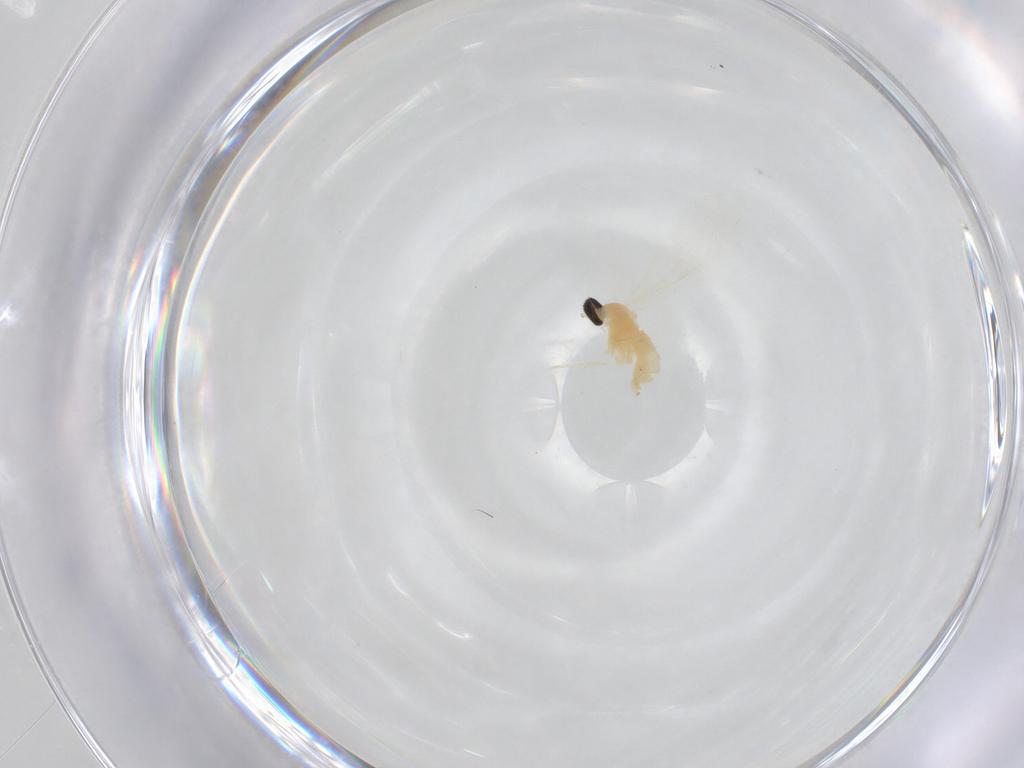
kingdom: Animalia
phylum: Arthropoda
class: Insecta
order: Diptera
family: Cecidomyiidae
